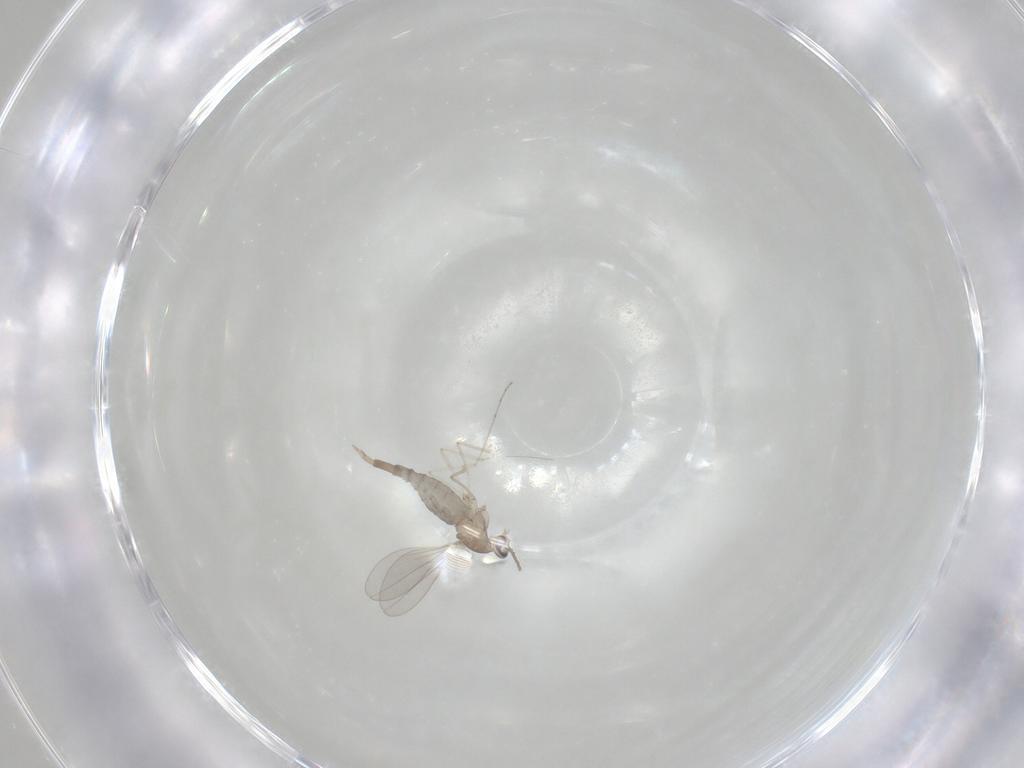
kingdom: Animalia
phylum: Arthropoda
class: Insecta
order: Diptera
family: Cecidomyiidae
